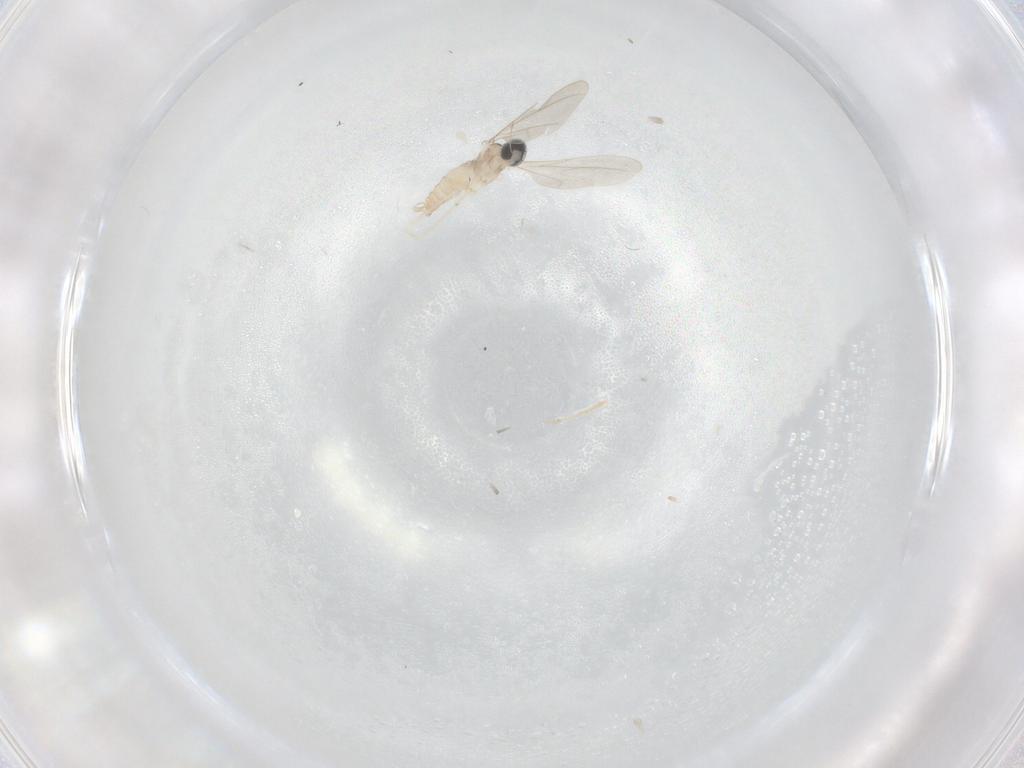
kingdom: Animalia
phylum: Arthropoda
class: Insecta
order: Diptera
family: Cecidomyiidae
